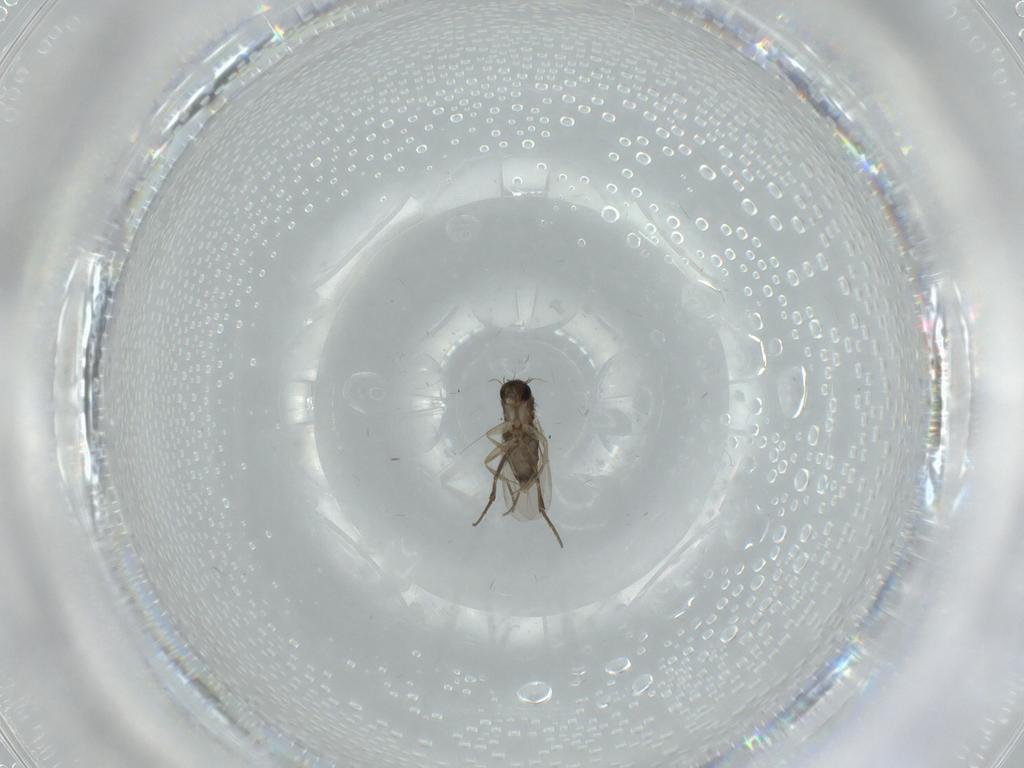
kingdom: Animalia
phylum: Arthropoda
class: Insecta
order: Diptera
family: Phoridae
